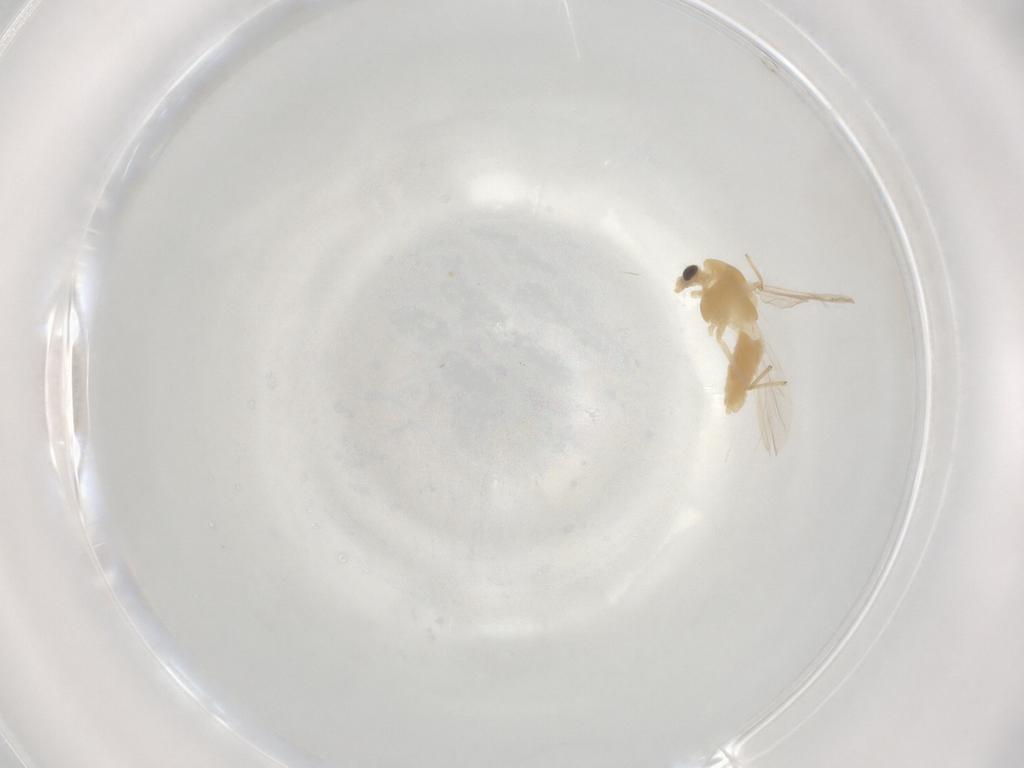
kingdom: Animalia
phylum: Arthropoda
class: Insecta
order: Diptera
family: Chironomidae
